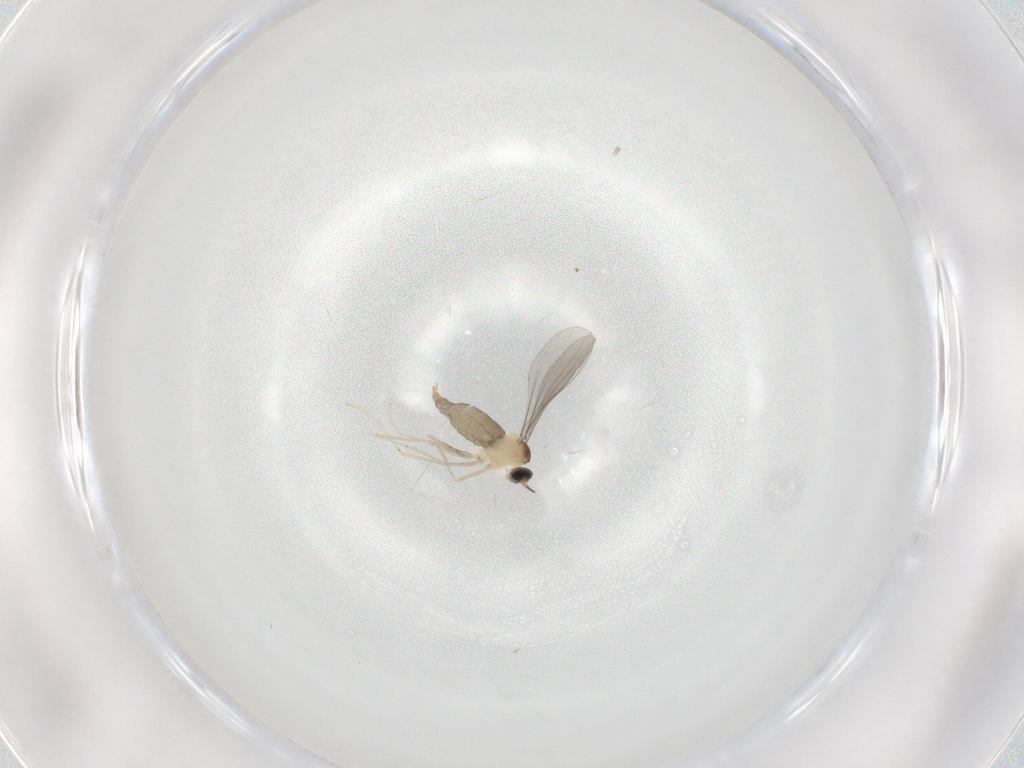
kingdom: Animalia
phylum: Arthropoda
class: Insecta
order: Diptera
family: Cecidomyiidae
